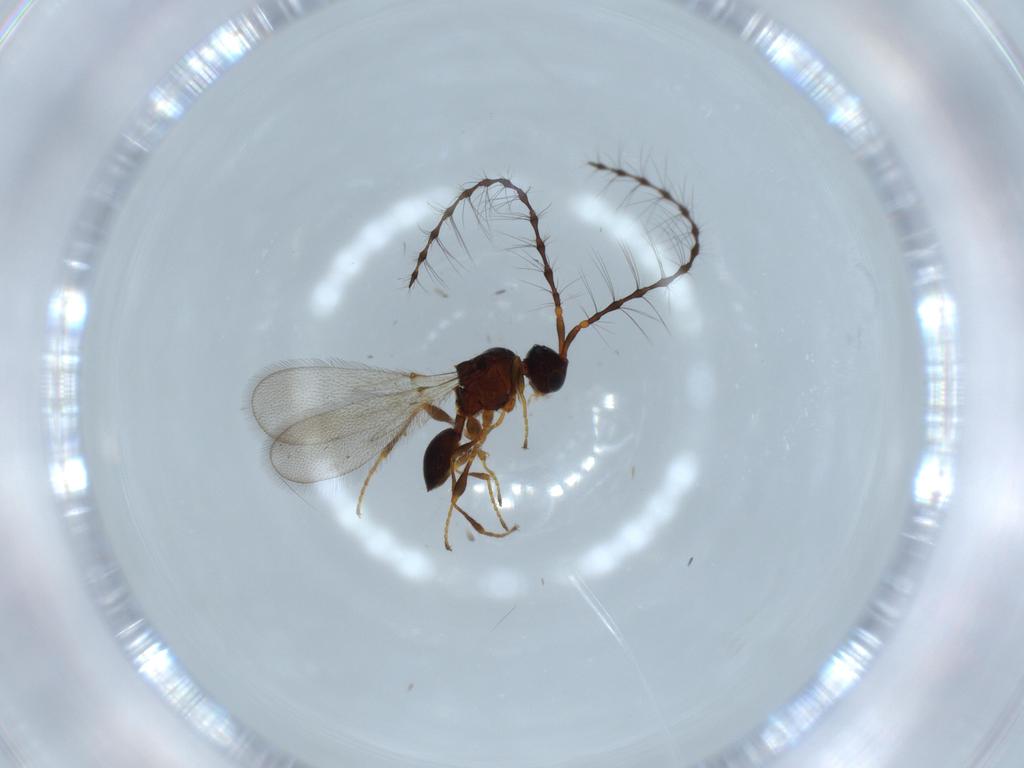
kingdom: Animalia
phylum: Arthropoda
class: Insecta
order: Hymenoptera
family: Diapriidae
